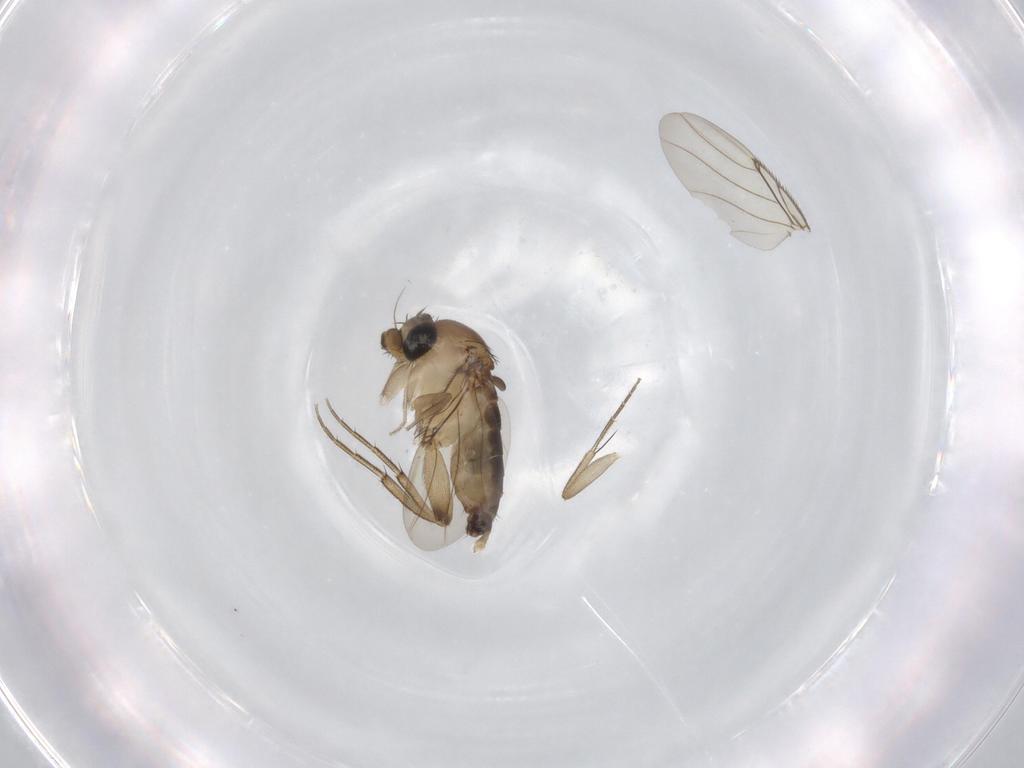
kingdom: Animalia
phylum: Arthropoda
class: Insecta
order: Diptera
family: Phoridae
